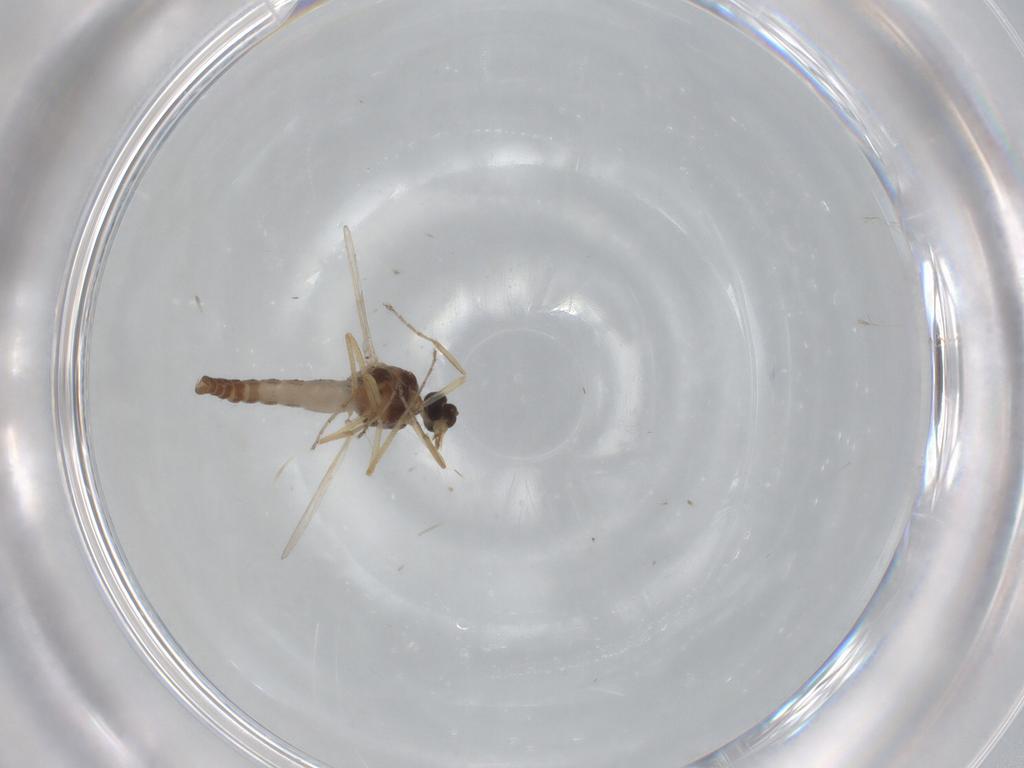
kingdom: Animalia
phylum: Arthropoda
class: Insecta
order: Diptera
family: Ceratopogonidae
